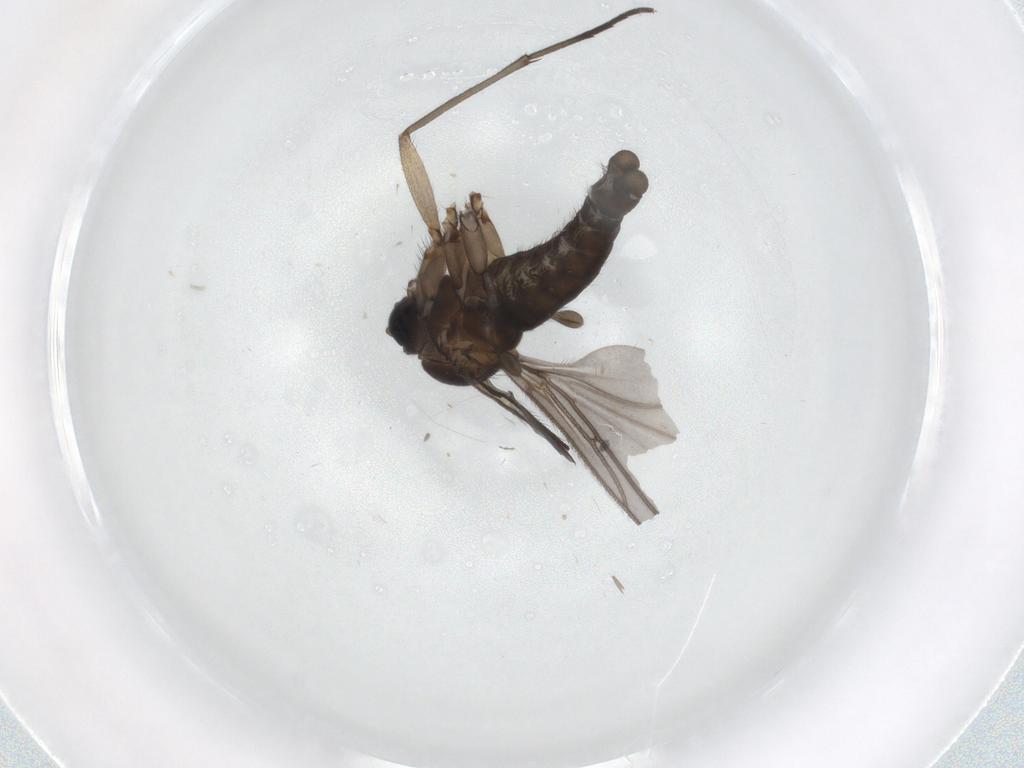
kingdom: Animalia
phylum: Arthropoda
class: Insecta
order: Diptera
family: Sciaridae
